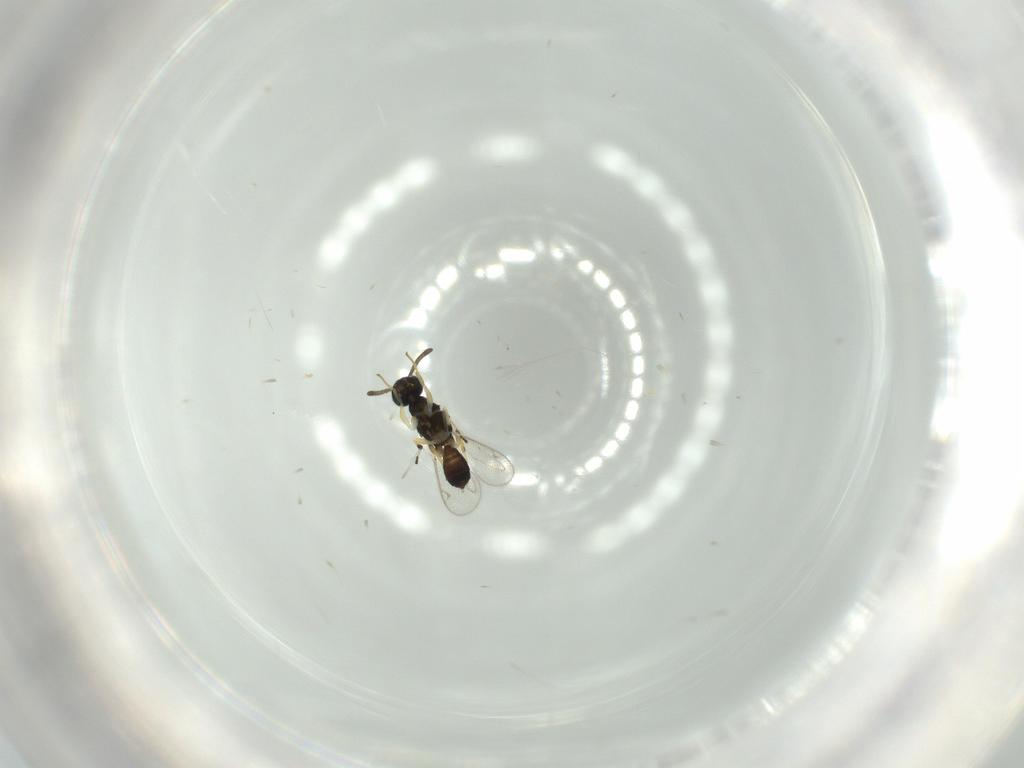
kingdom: Animalia
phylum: Arthropoda
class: Insecta
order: Hymenoptera
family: Eupelmidae
